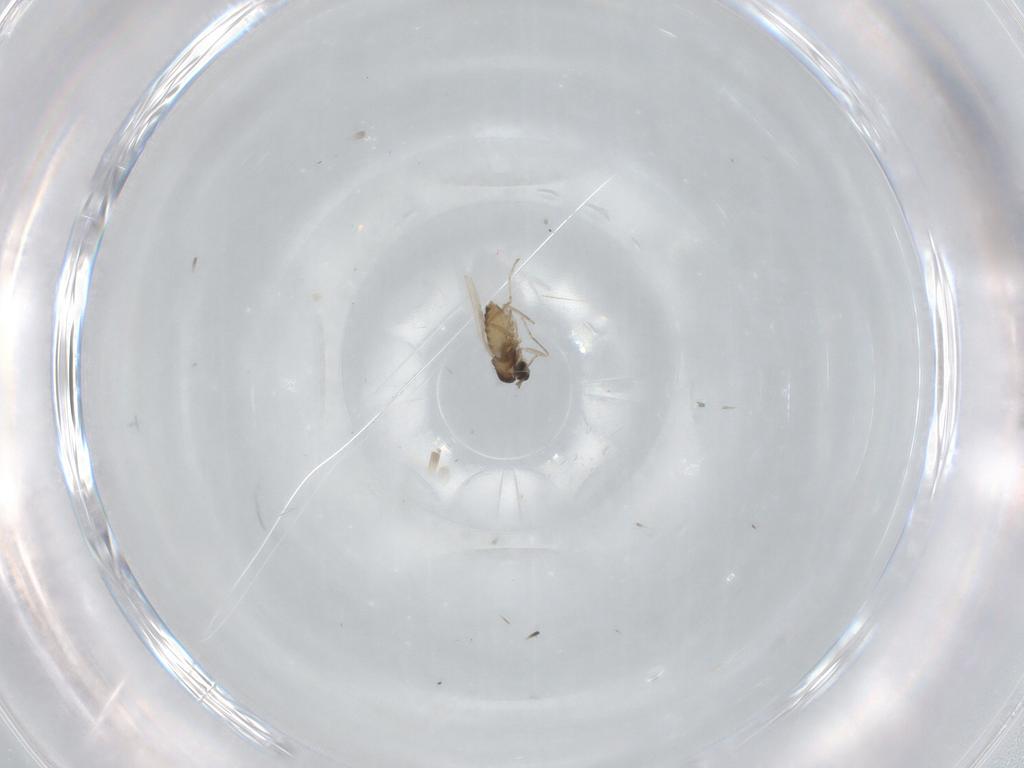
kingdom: Animalia
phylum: Arthropoda
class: Insecta
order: Diptera
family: Cecidomyiidae
